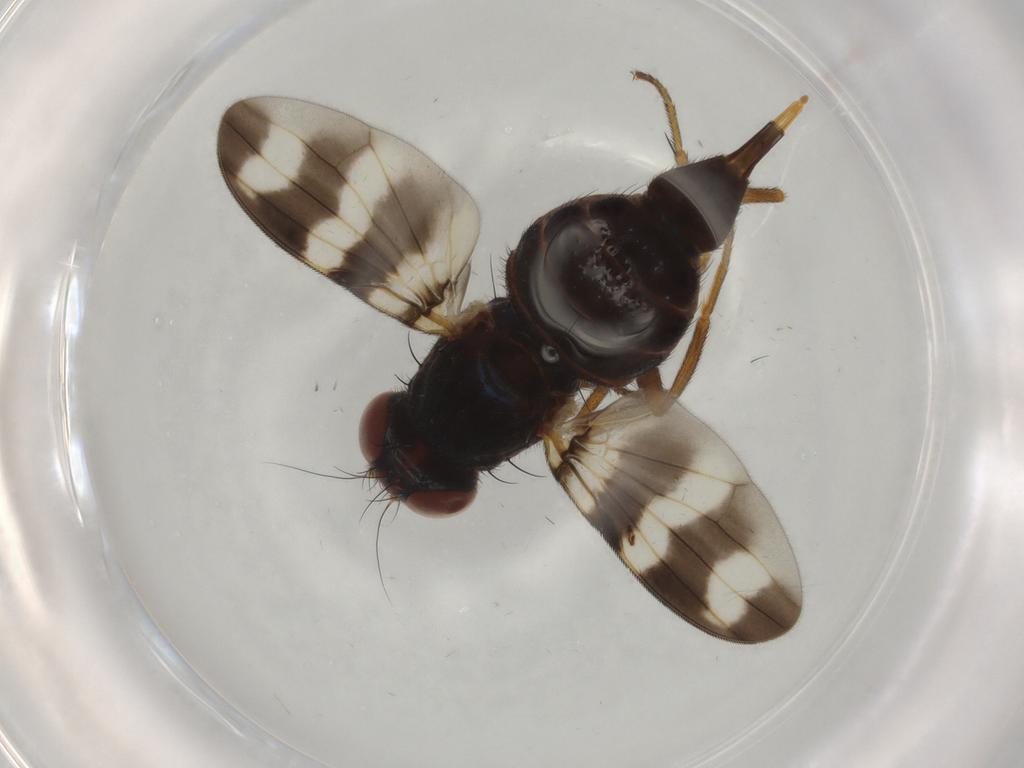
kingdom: Animalia
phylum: Arthropoda
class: Insecta
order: Diptera
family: Ulidiidae
